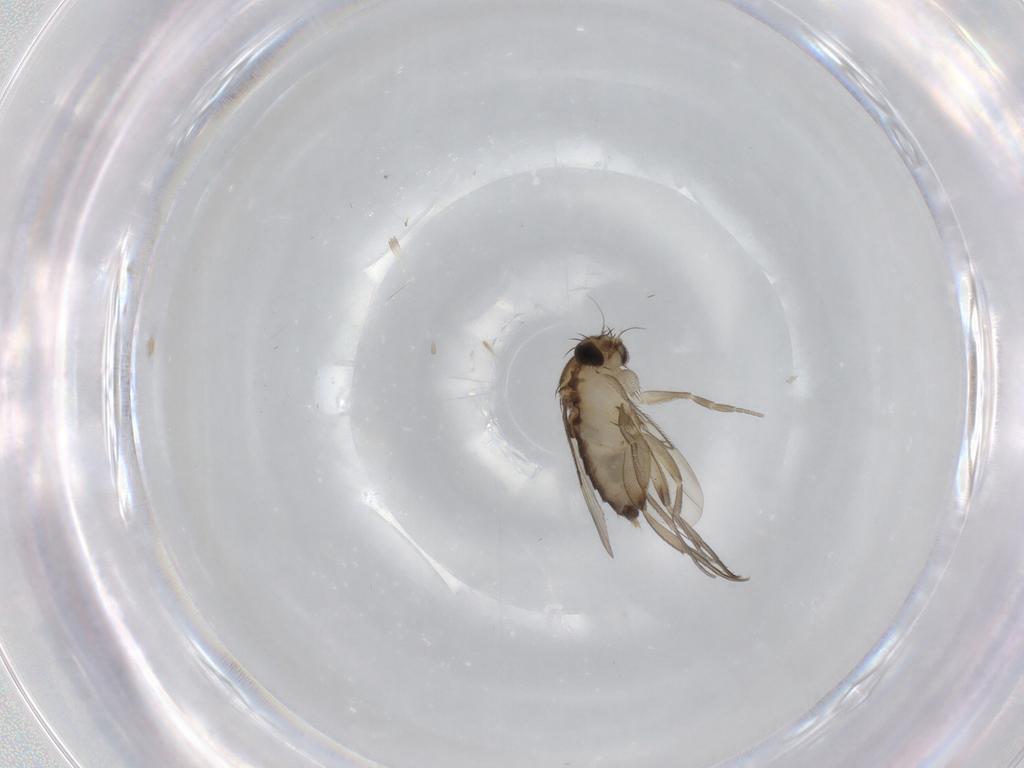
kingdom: Animalia
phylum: Arthropoda
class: Insecta
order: Diptera
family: Phoridae
